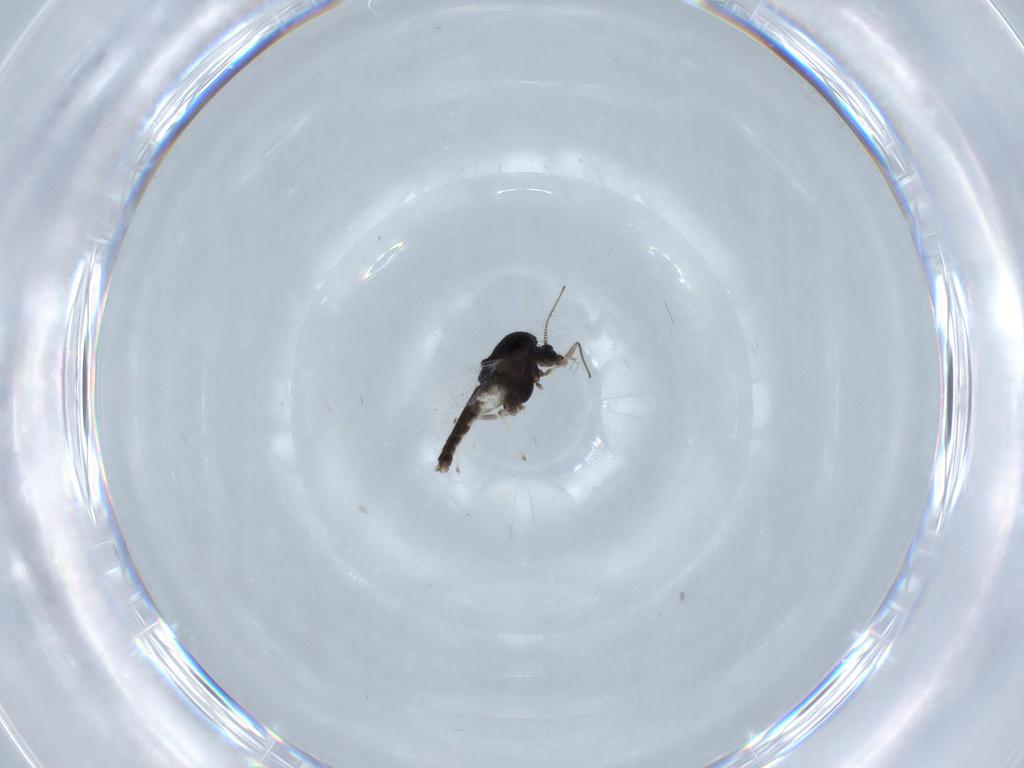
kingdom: Animalia
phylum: Arthropoda
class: Insecta
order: Diptera
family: Chironomidae
